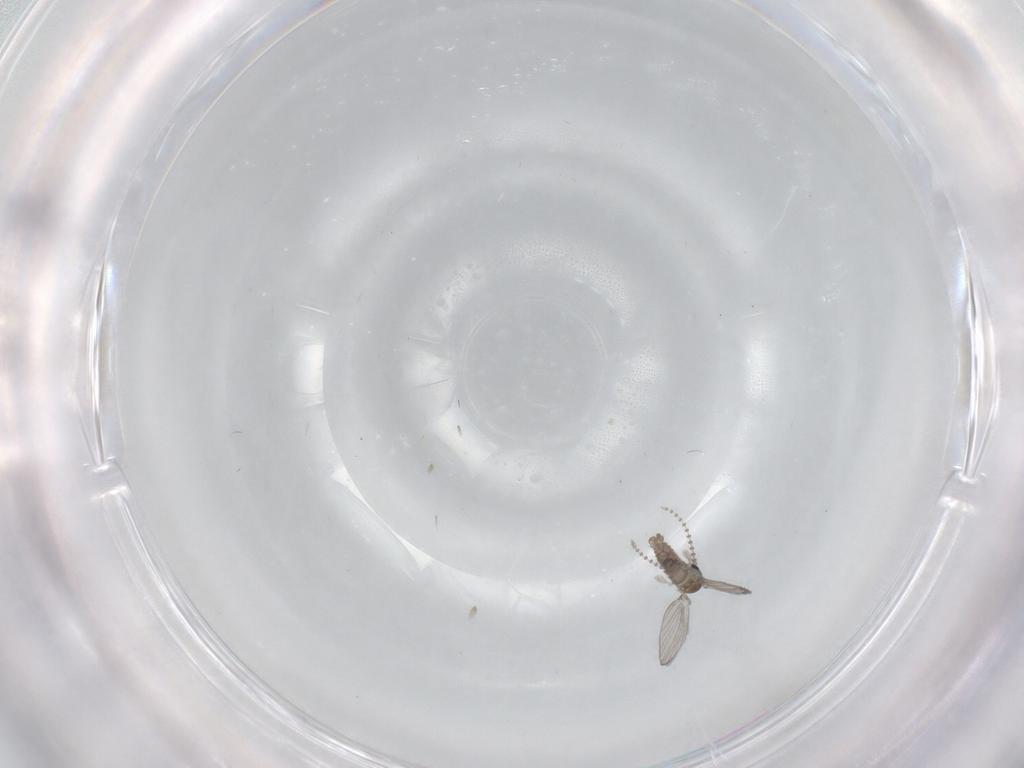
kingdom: Animalia
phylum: Arthropoda
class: Insecta
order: Diptera
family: Psychodidae
